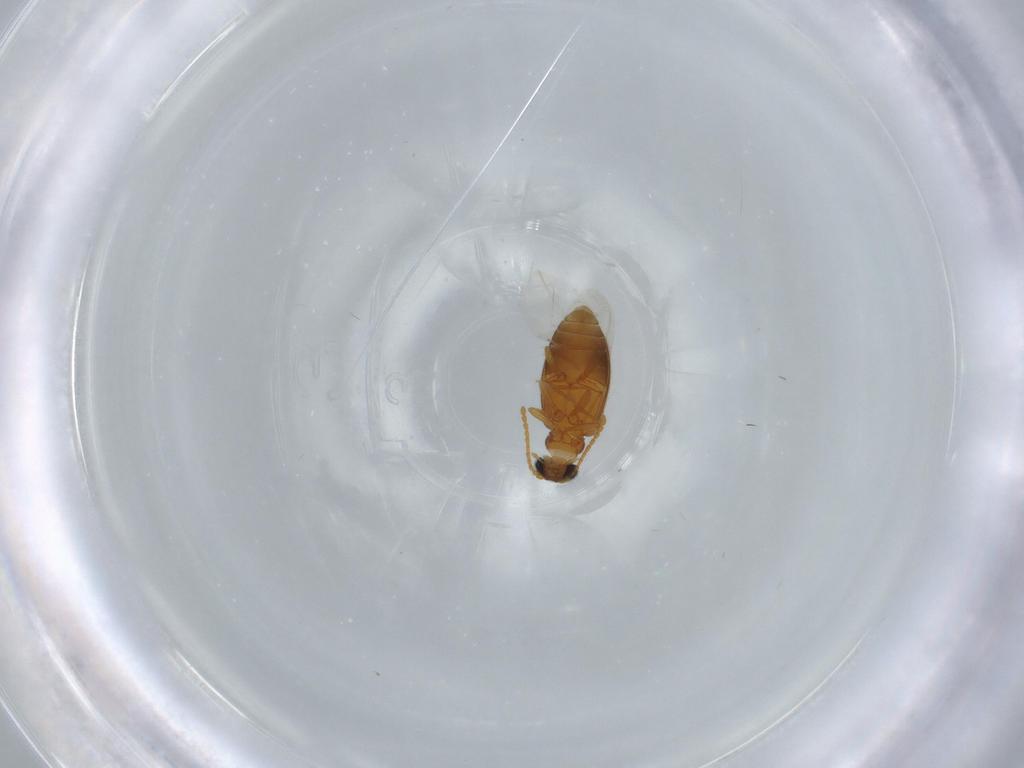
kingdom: Animalia
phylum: Arthropoda
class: Insecta
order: Coleoptera
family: Aderidae
